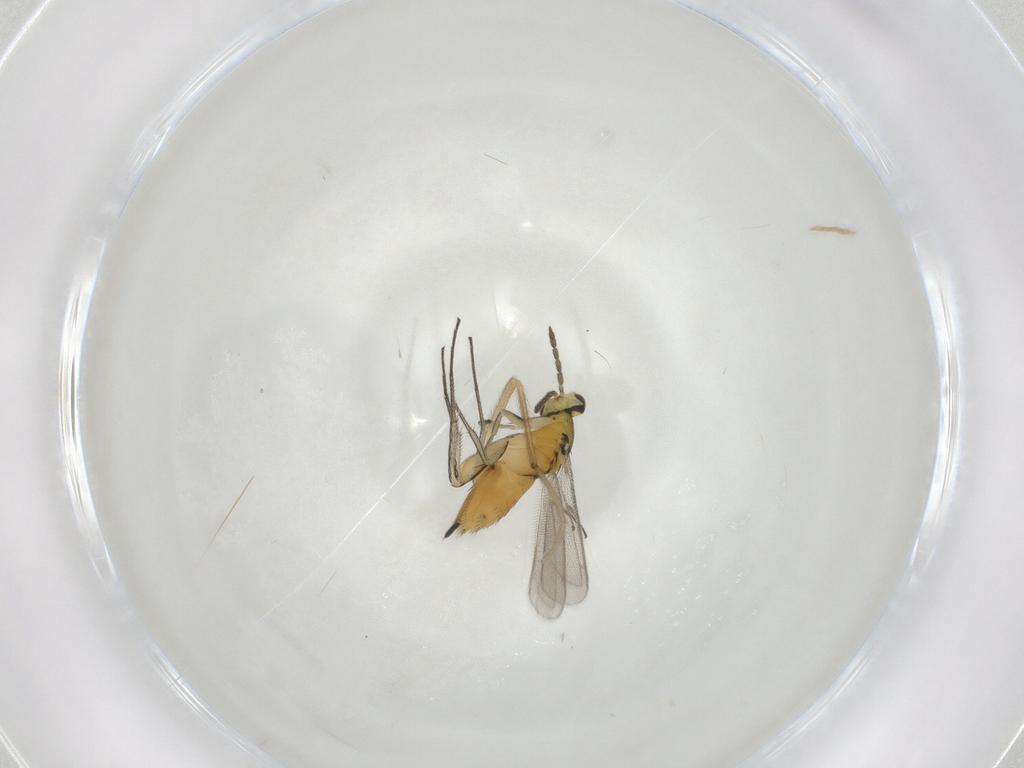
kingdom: Animalia
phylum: Arthropoda
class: Insecta
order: Hymenoptera
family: Eulophidae
